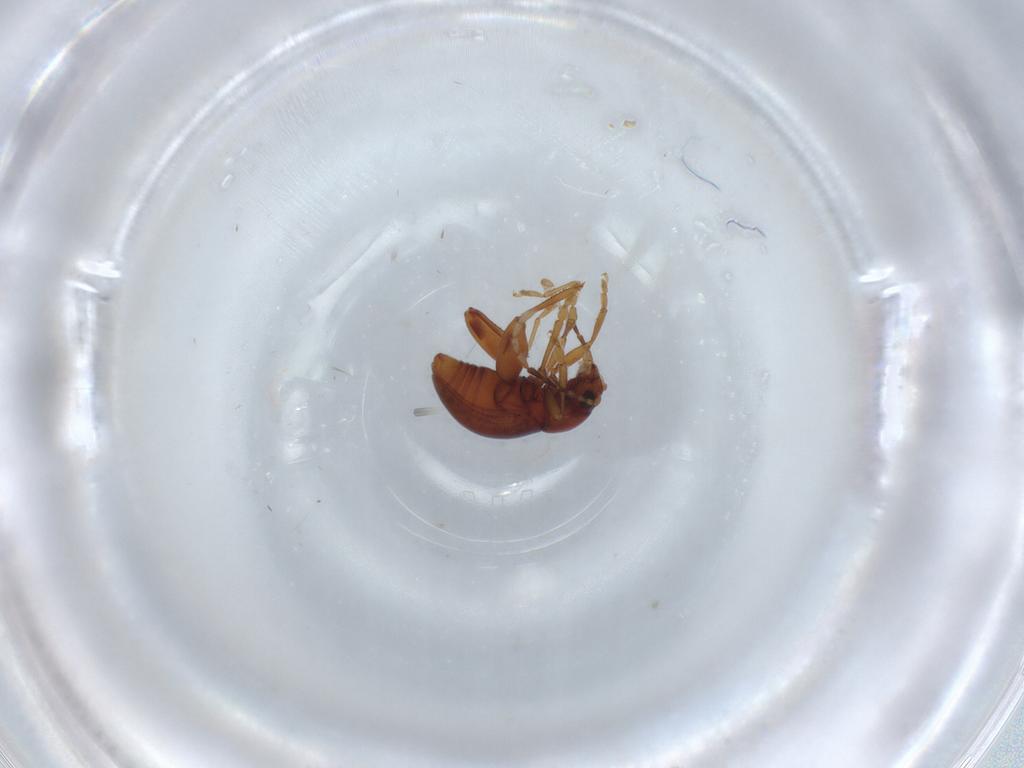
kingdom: Animalia
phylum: Arthropoda
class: Insecta
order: Coleoptera
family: Chrysomelidae
